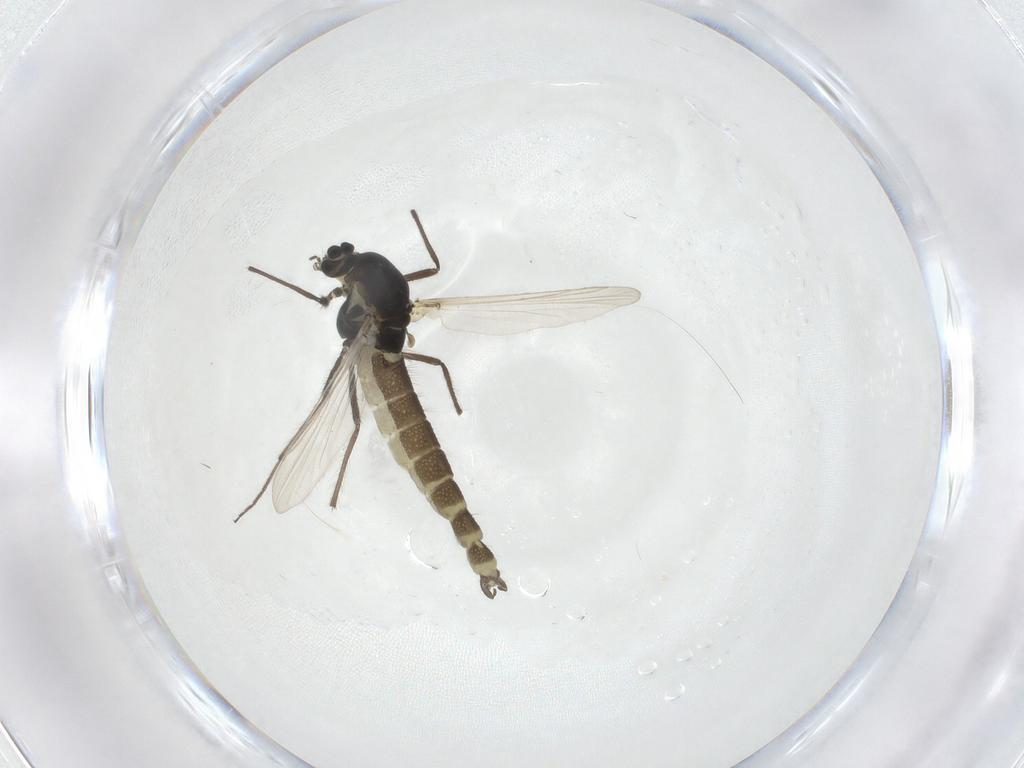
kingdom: Animalia
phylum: Arthropoda
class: Insecta
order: Diptera
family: Chironomidae
